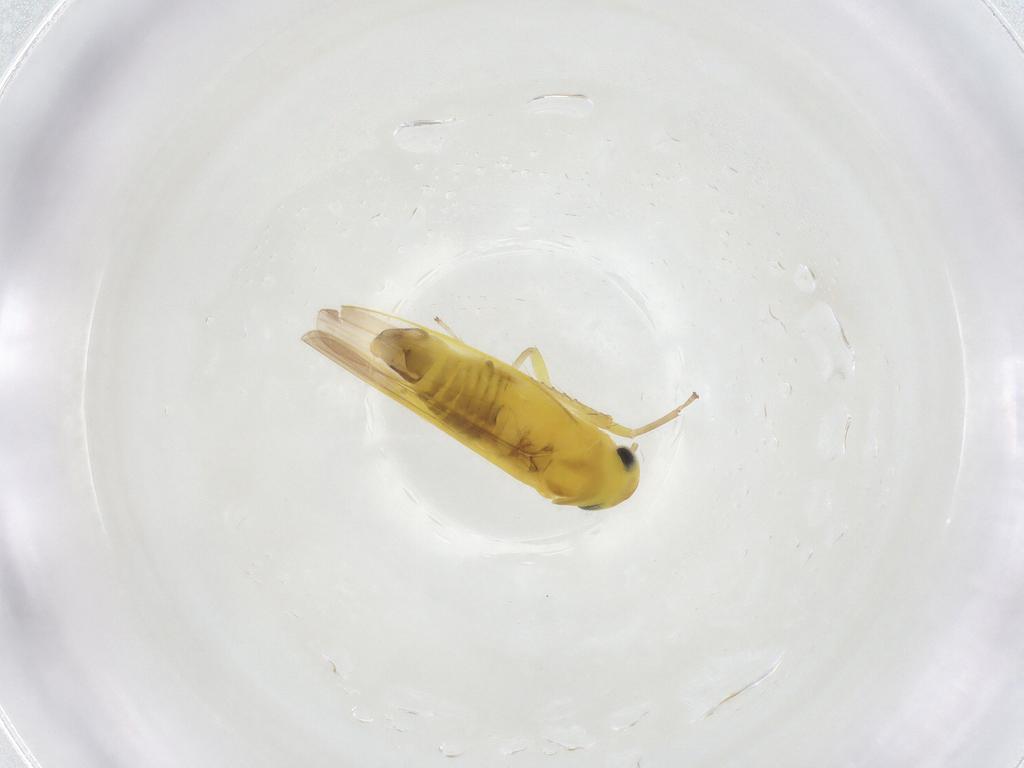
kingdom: Animalia
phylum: Arthropoda
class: Insecta
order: Hemiptera
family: Cicadellidae
